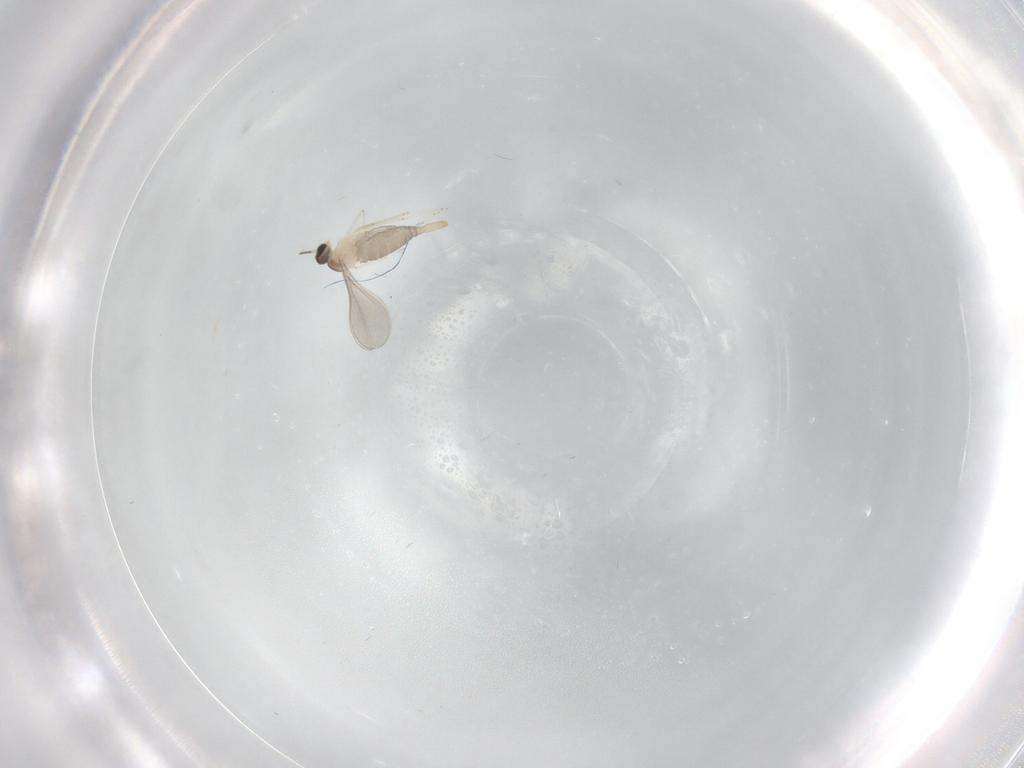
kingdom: Animalia
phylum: Arthropoda
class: Insecta
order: Diptera
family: Cecidomyiidae
